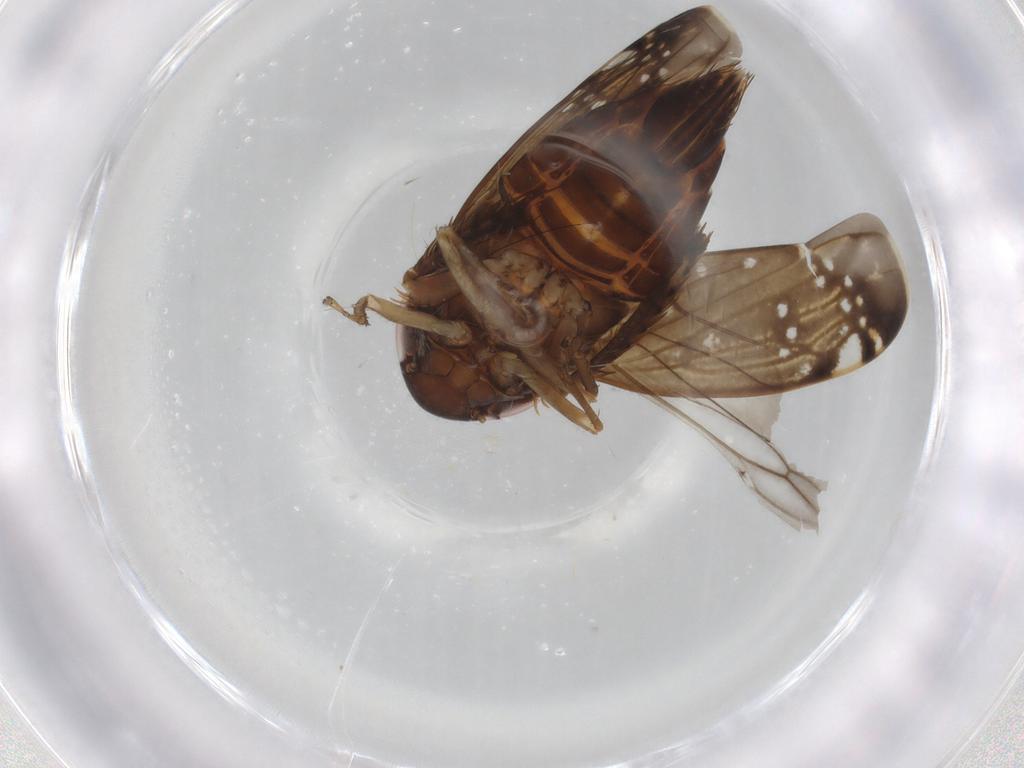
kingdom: Animalia
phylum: Arthropoda
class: Insecta
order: Hemiptera
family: Cicadellidae
